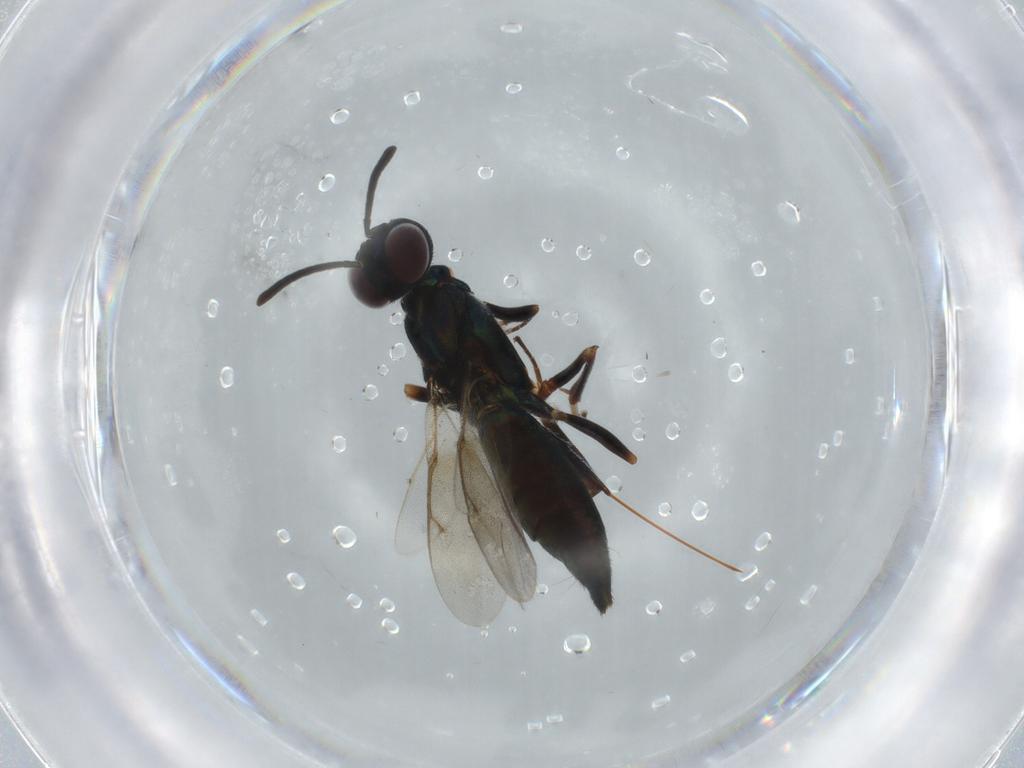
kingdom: Animalia
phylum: Arthropoda
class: Insecta
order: Hymenoptera
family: Eupelmidae
